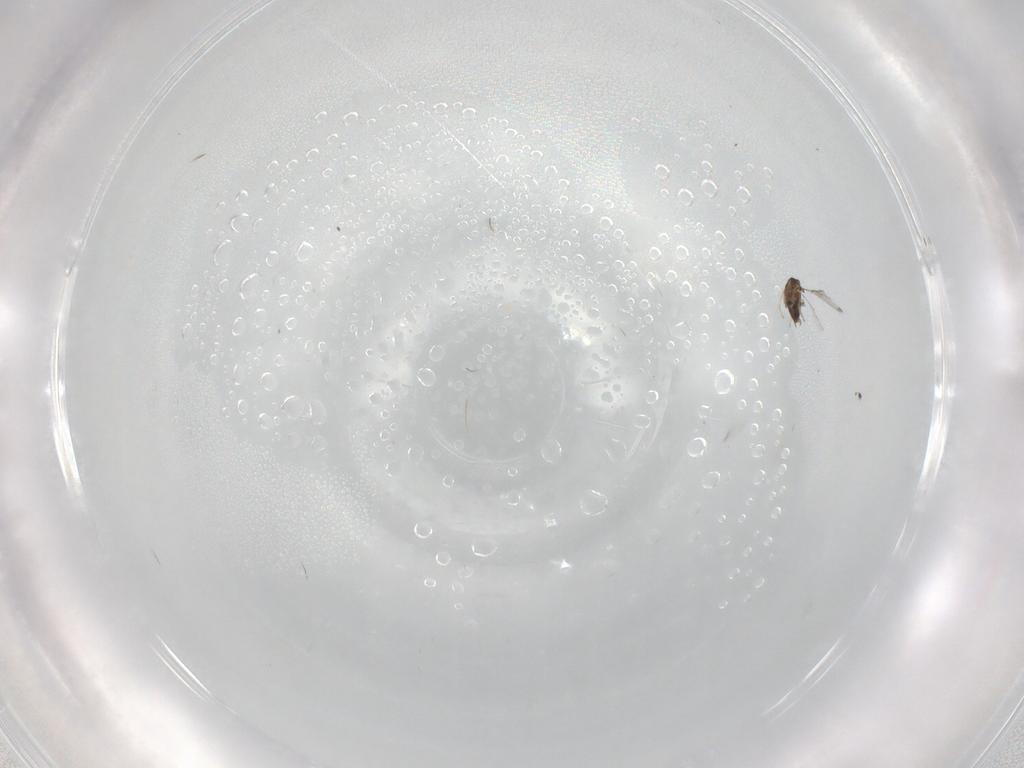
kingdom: Animalia
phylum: Arthropoda
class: Insecta
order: Hymenoptera
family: Trichogrammatidae
